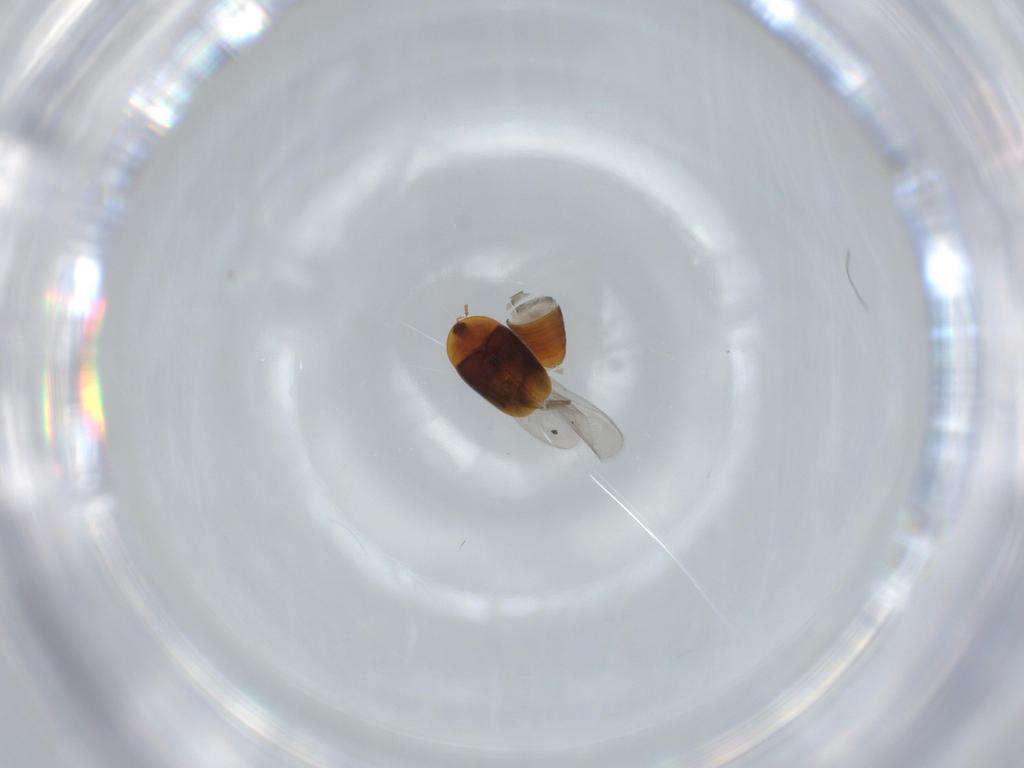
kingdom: Animalia
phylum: Arthropoda
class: Insecta
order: Coleoptera
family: Corylophidae
